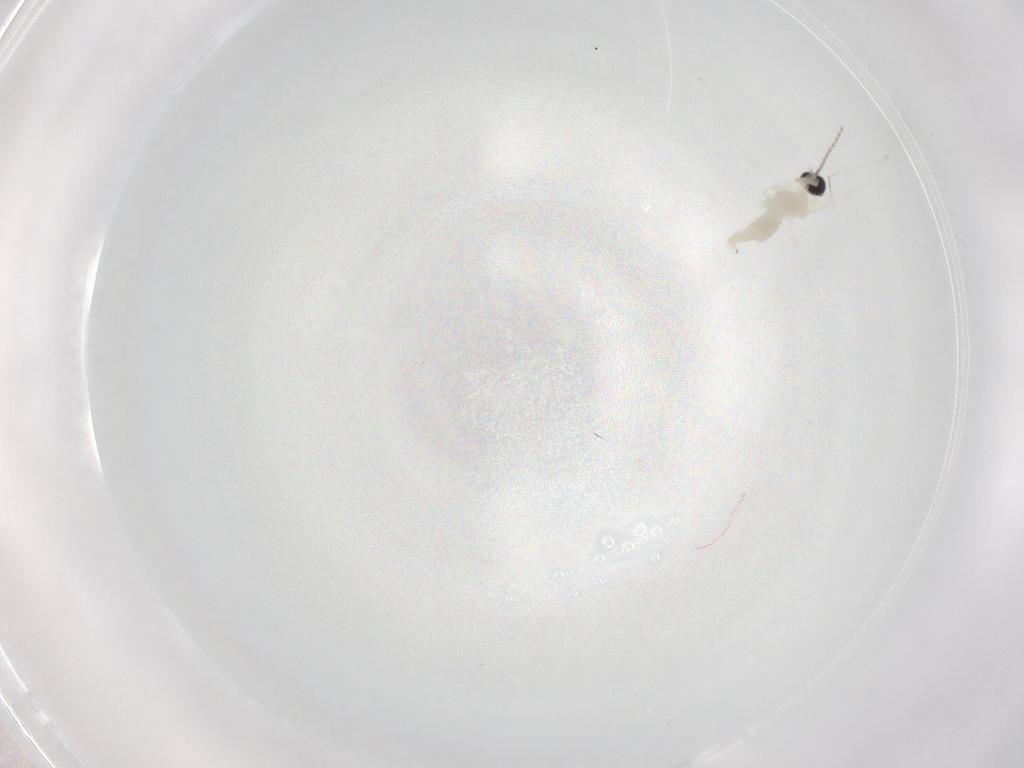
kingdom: Animalia
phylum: Arthropoda
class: Insecta
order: Diptera
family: Cecidomyiidae
